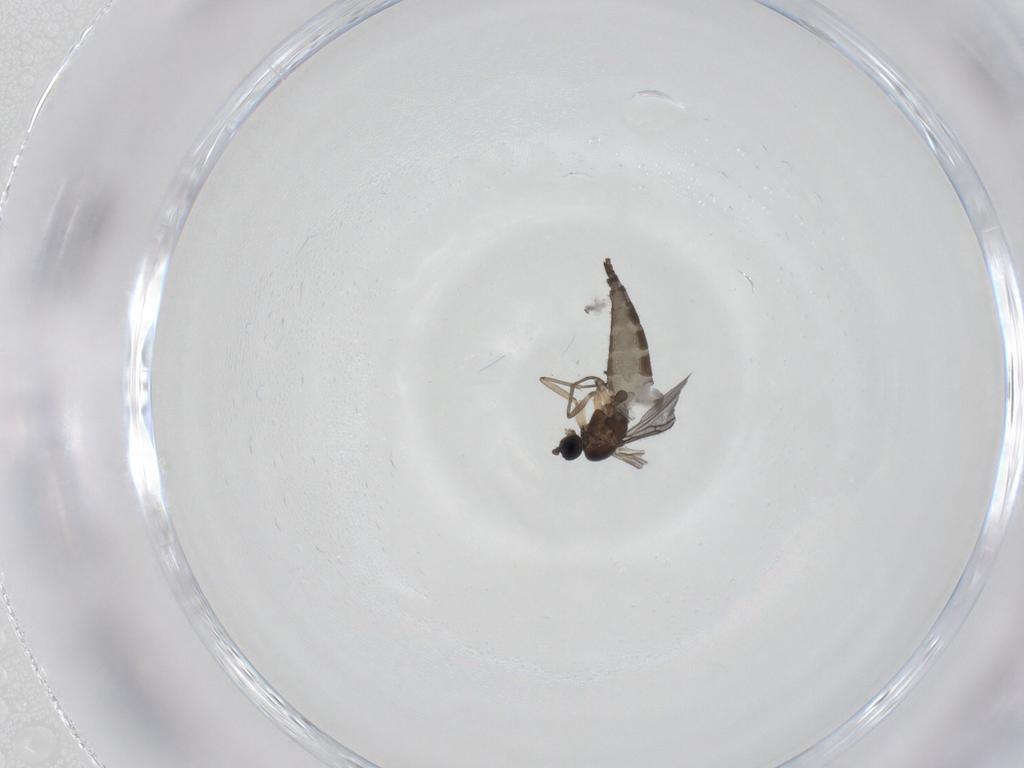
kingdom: Animalia
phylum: Arthropoda
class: Insecta
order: Diptera
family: Sciaridae
